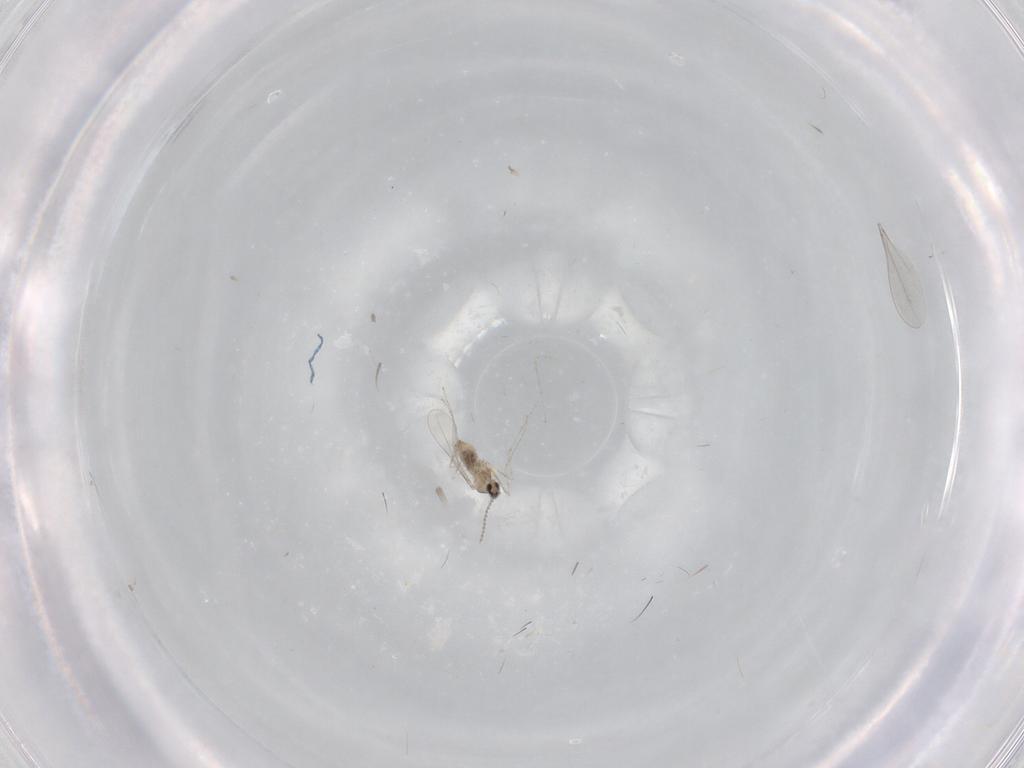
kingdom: Animalia
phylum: Arthropoda
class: Insecta
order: Diptera
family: Cecidomyiidae
